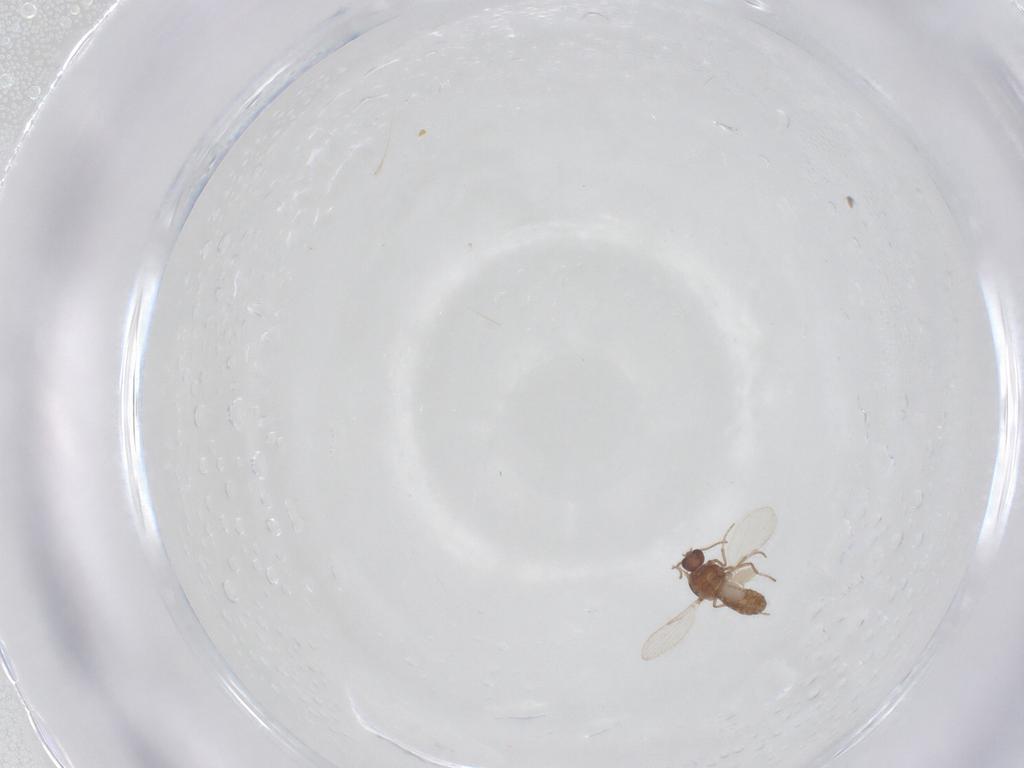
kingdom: Animalia
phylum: Arthropoda
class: Insecta
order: Diptera
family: Ceratopogonidae
